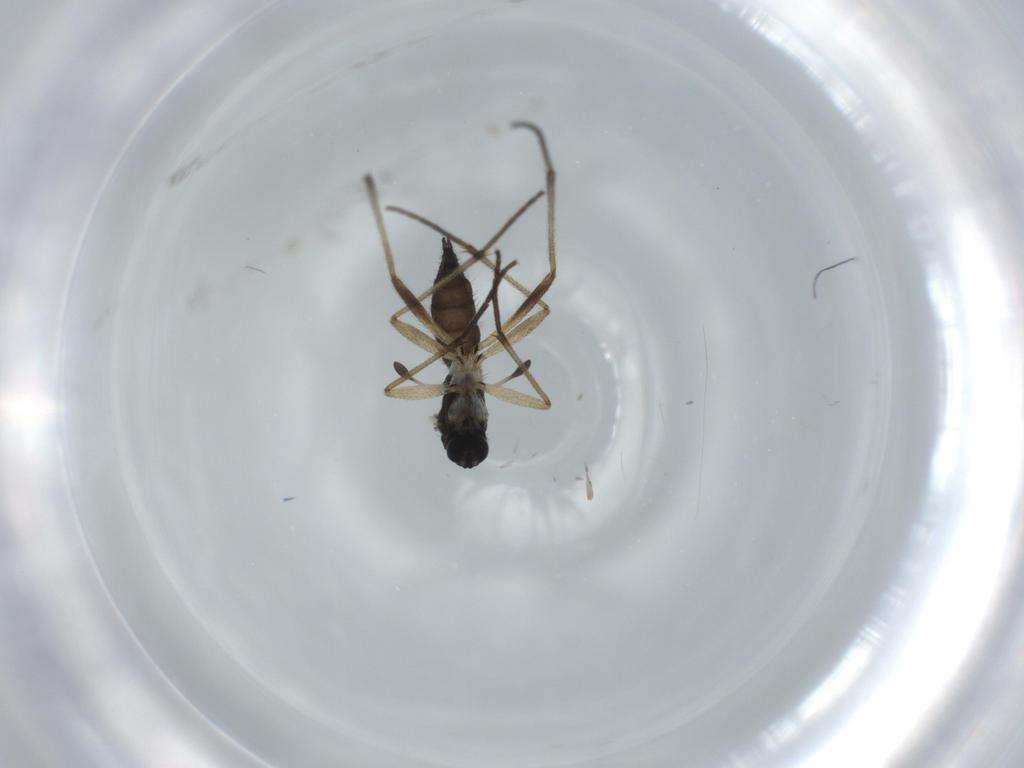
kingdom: Animalia
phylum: Arthropoda
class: Insecta
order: Diptera
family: Sciaridae
